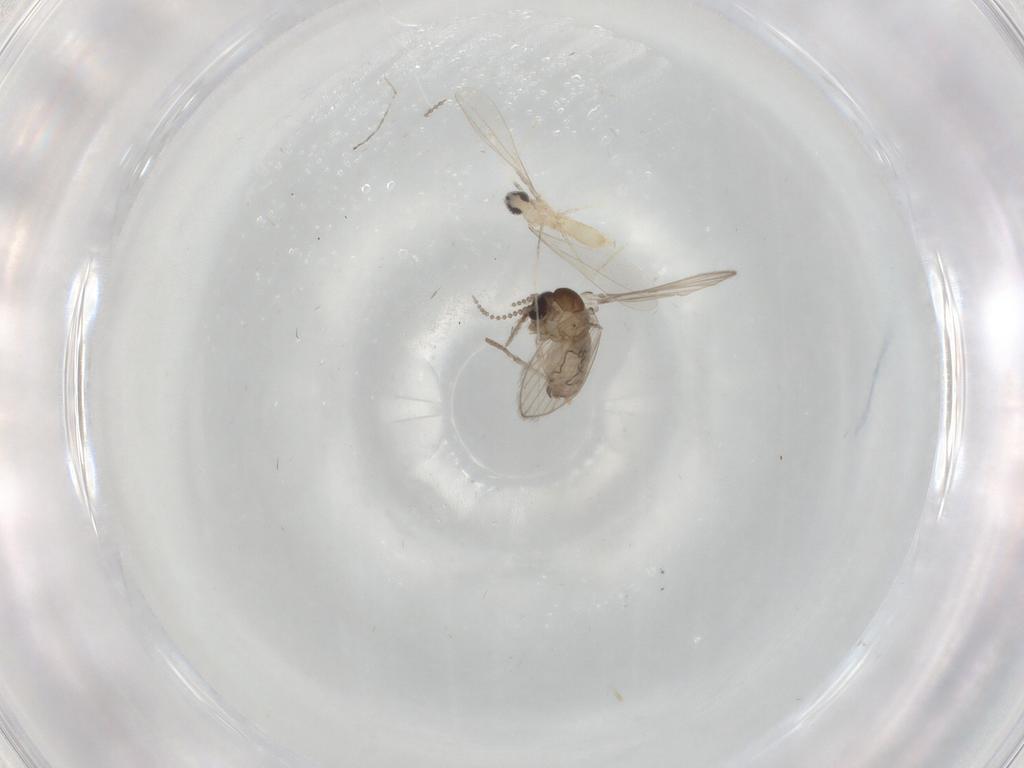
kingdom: Animalia
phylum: Arthropoda
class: Insecta
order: Diptera
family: Psychodidae
